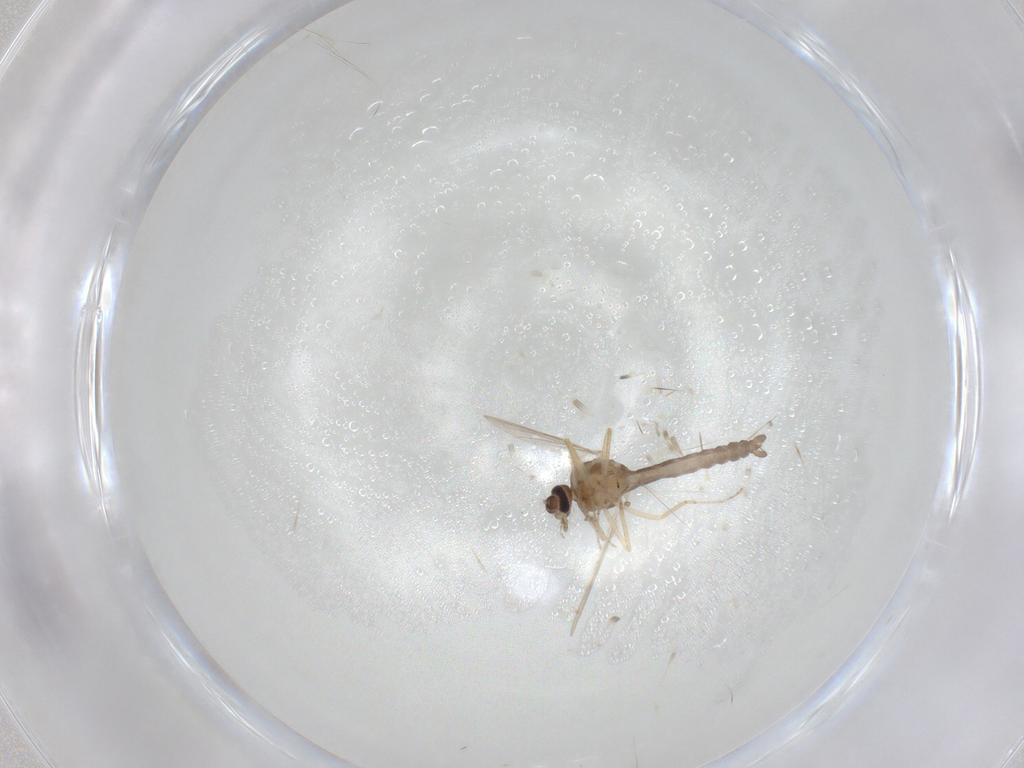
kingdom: Animalia
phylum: Arthropoda
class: Insecta
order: Diptera
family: Ceratopogonidae
